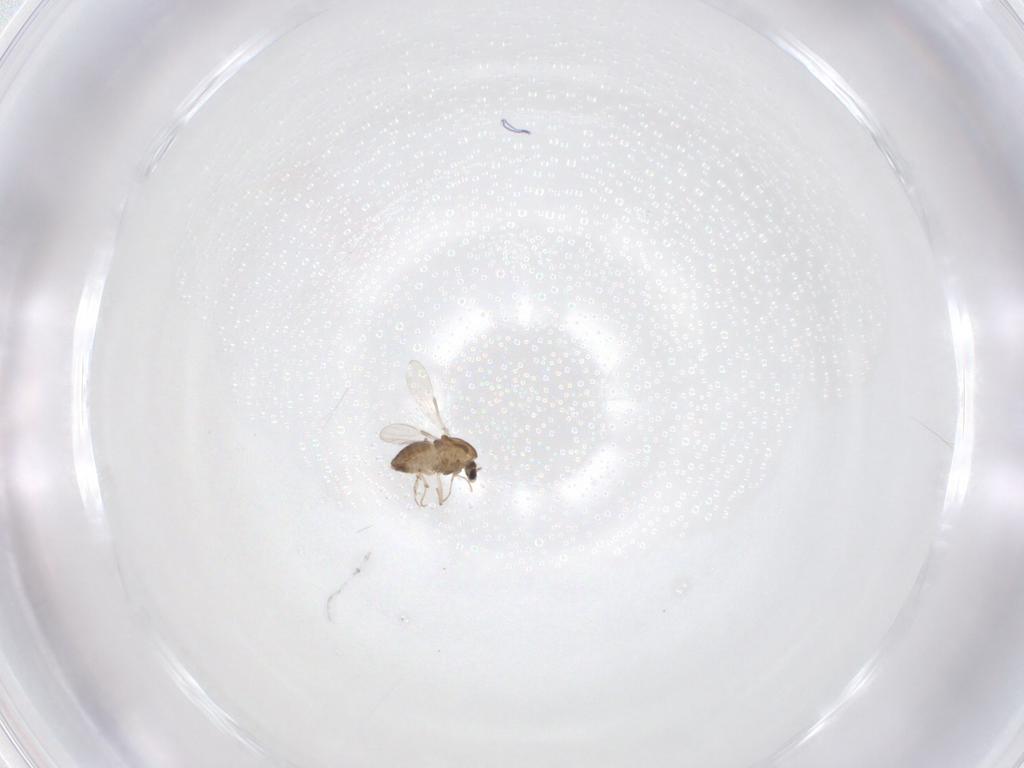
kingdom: Animalia
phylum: Arthropoda
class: Insecta
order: Diptera
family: Chironomidae
